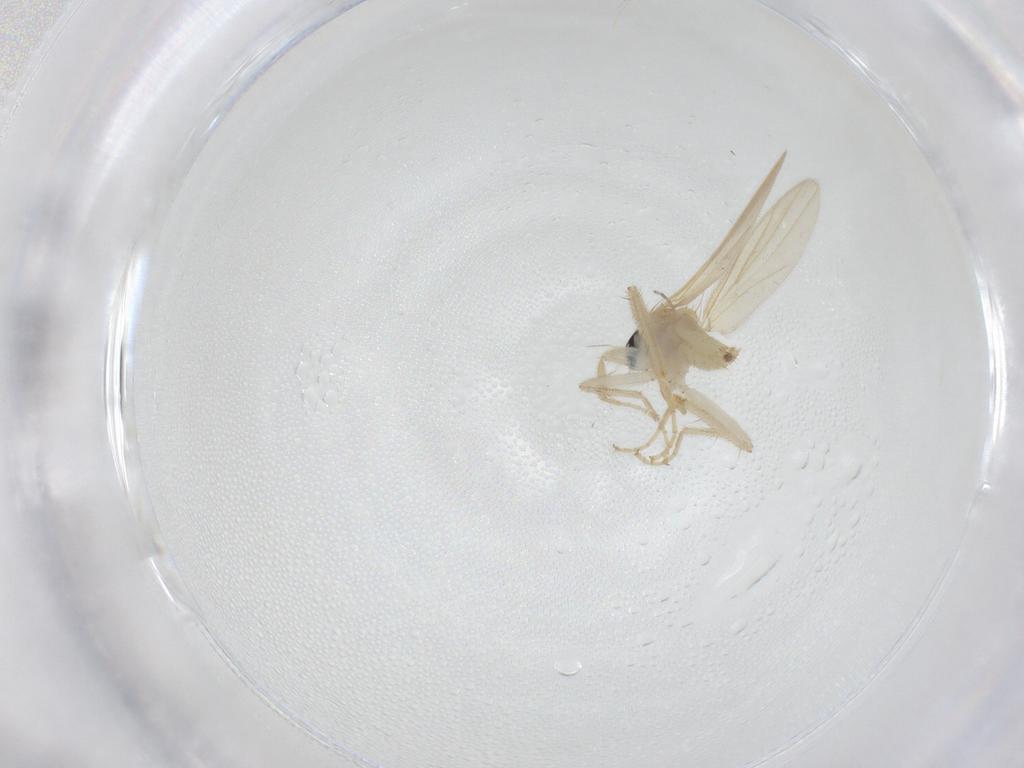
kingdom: Animalia
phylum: Arthropoda
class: Insecta
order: Diptera
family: Hybotidae
